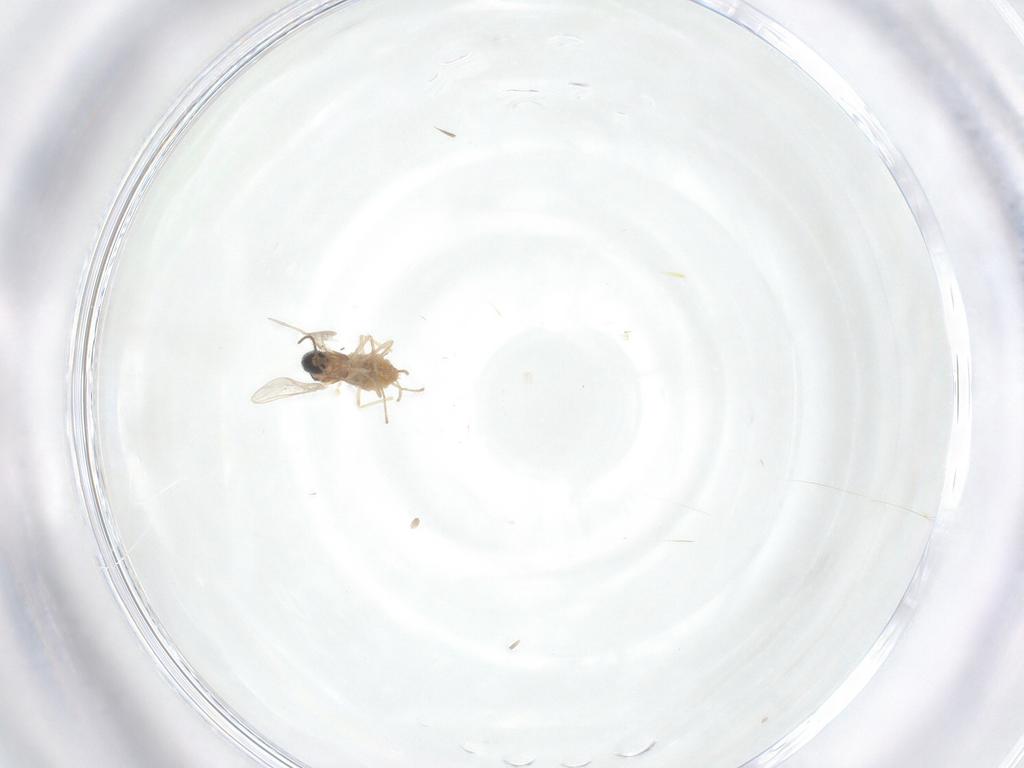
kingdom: Animalia
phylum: Arthropoda
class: Insecta
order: Diptera
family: Cecidomyiidae
